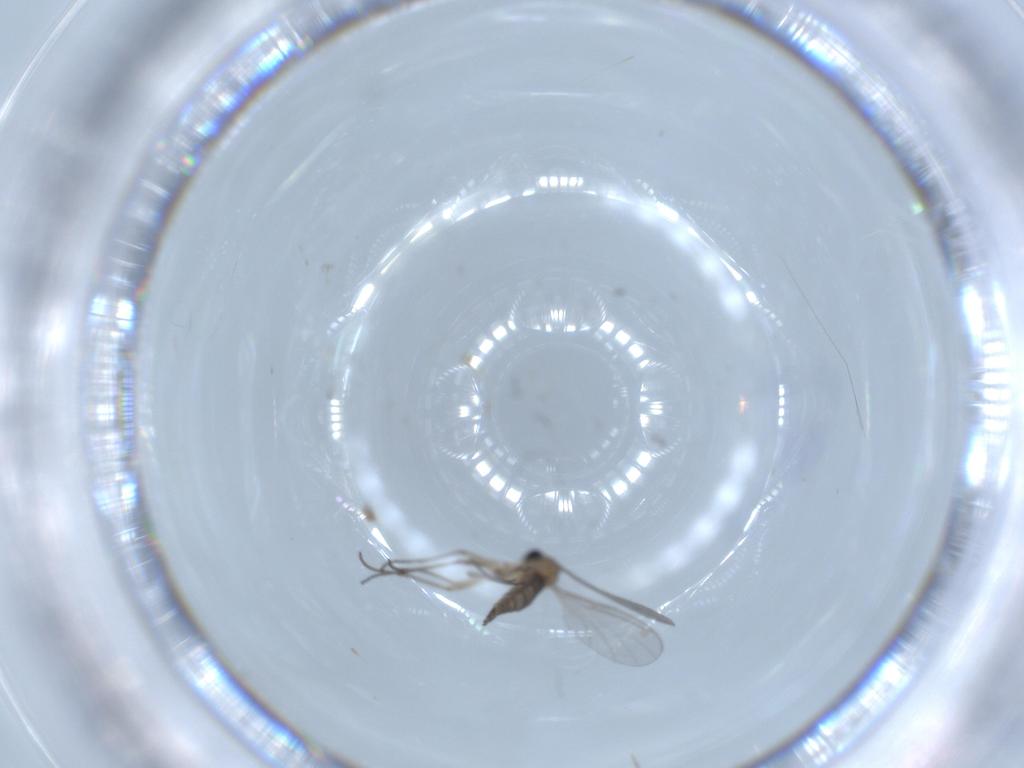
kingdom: Animalia
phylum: Arthropoda
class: Insecta
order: Diptera
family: Sciaridae
